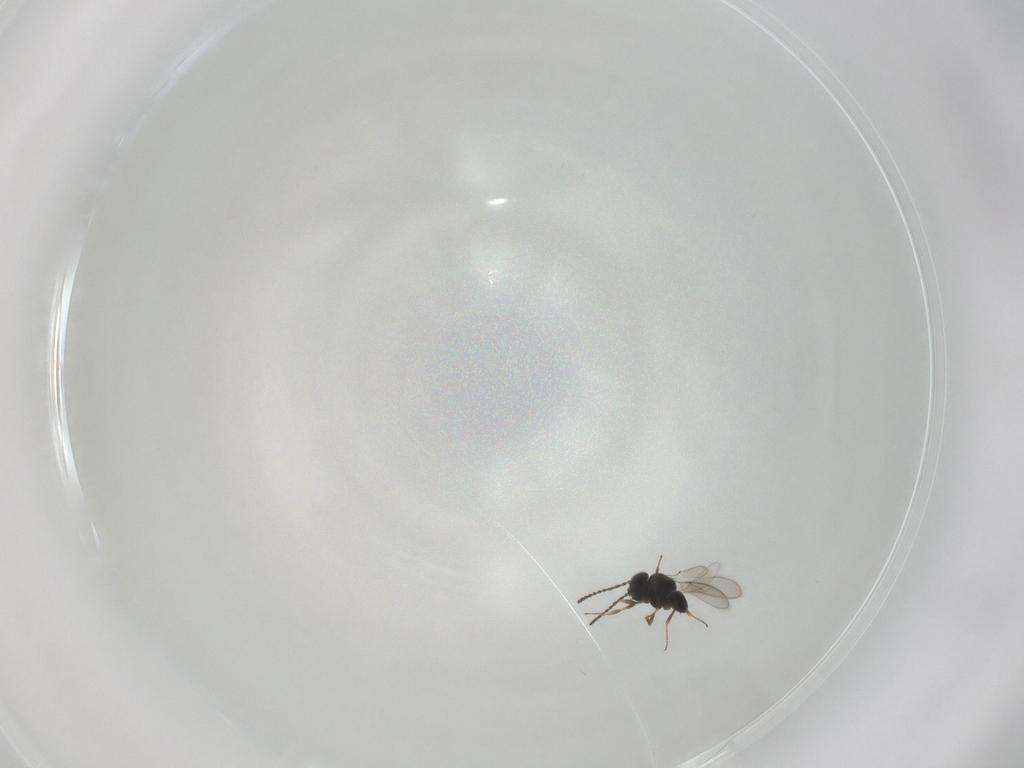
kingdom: Animalia
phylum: Arthropoda
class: Insecta
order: Hymenoptera
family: Scelionidae
